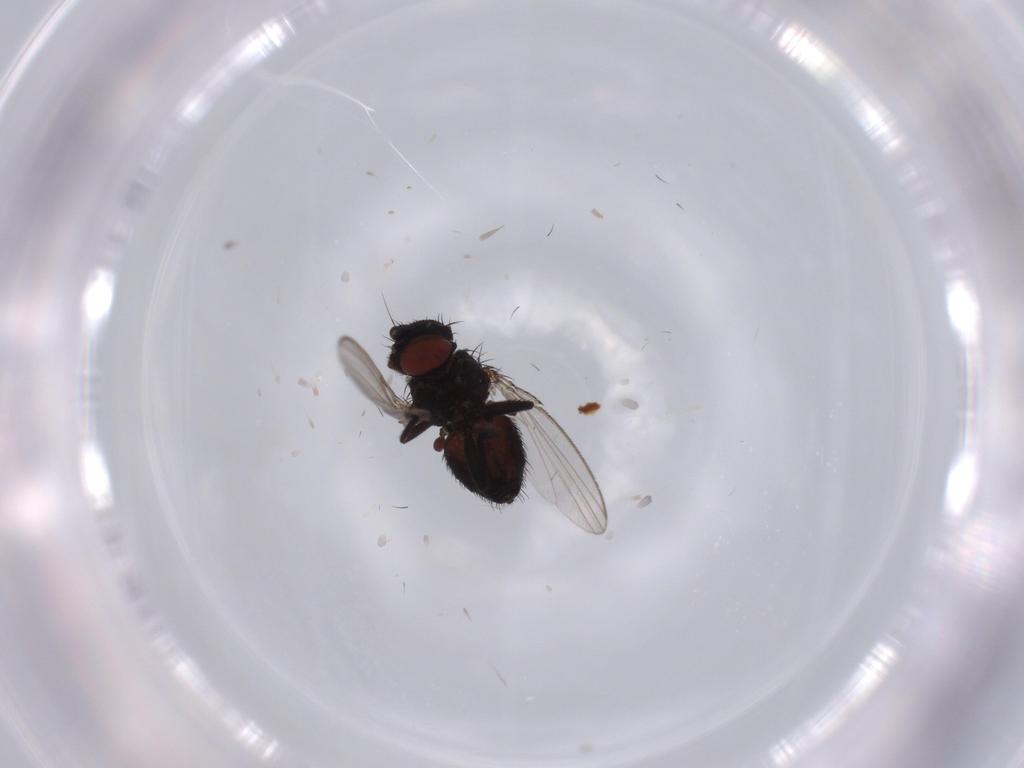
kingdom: Animalia
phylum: Arthropoda
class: Insecta
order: Diptera
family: Milichiidae
